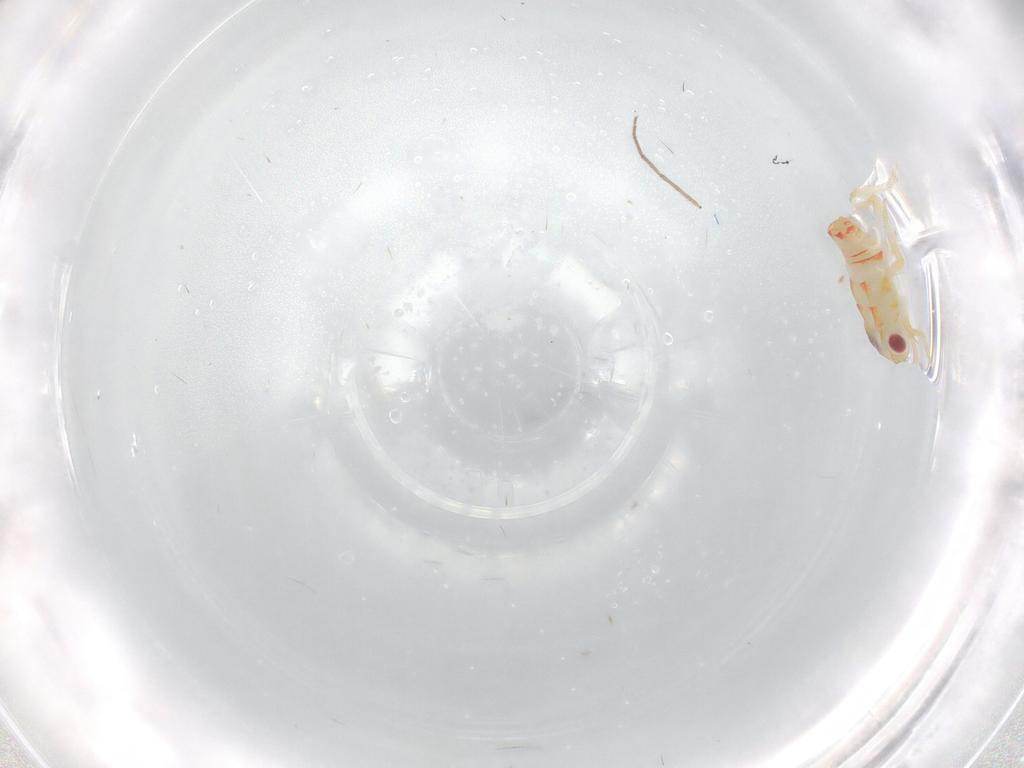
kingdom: Animalia
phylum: Arthropoda
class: Insecta
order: Hemiptera
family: Tropiduchidae
